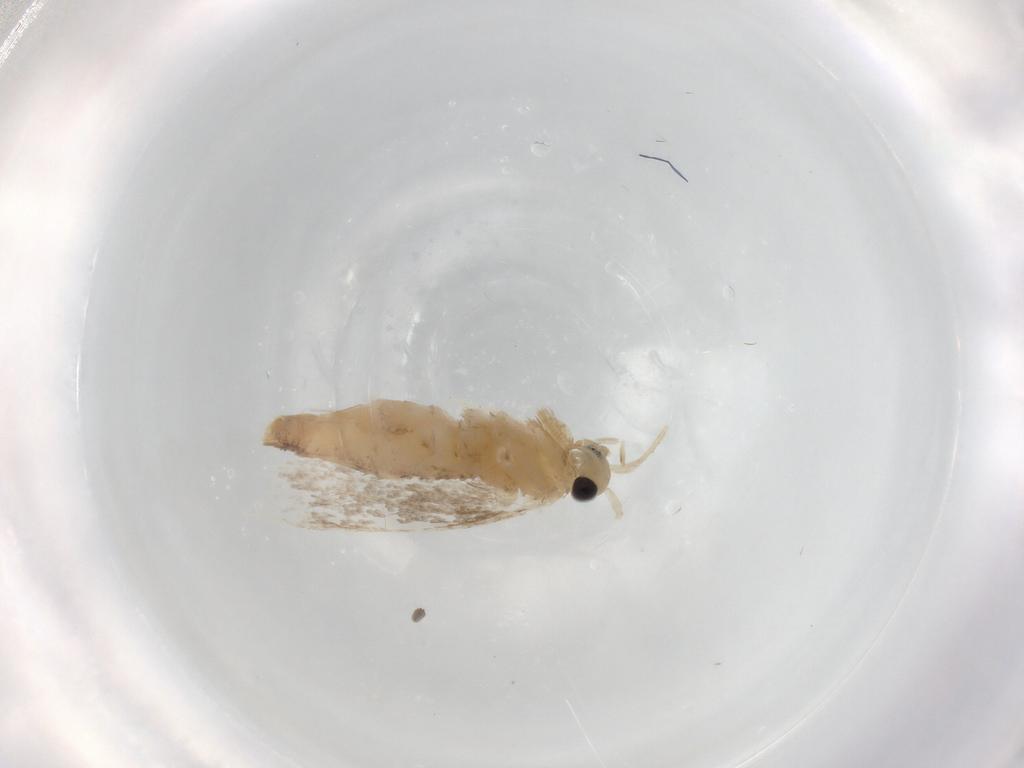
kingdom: Animalia
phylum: Arthropoda
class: Insecta
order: Lepidoptera
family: Dryadaulidae
